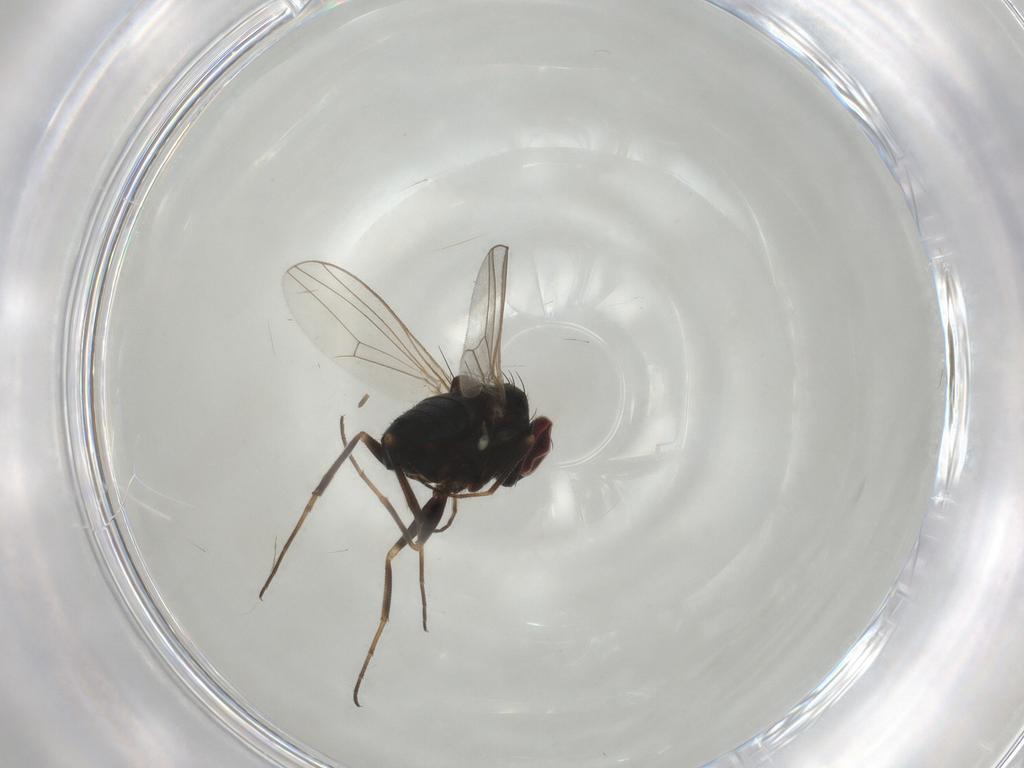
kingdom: Animalia
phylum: Arthropoda
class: Insecta
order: Diptera
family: Dolichopodidae
